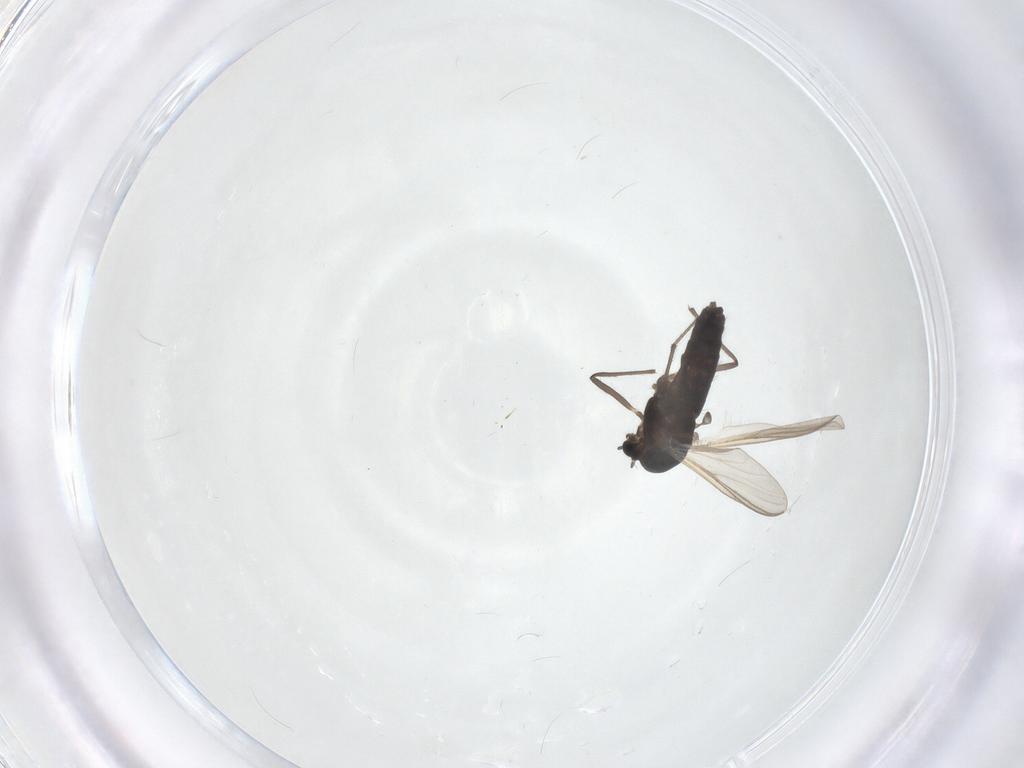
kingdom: Animalia
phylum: Arthropoda
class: Insecta
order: Diptera
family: Chironomidae
